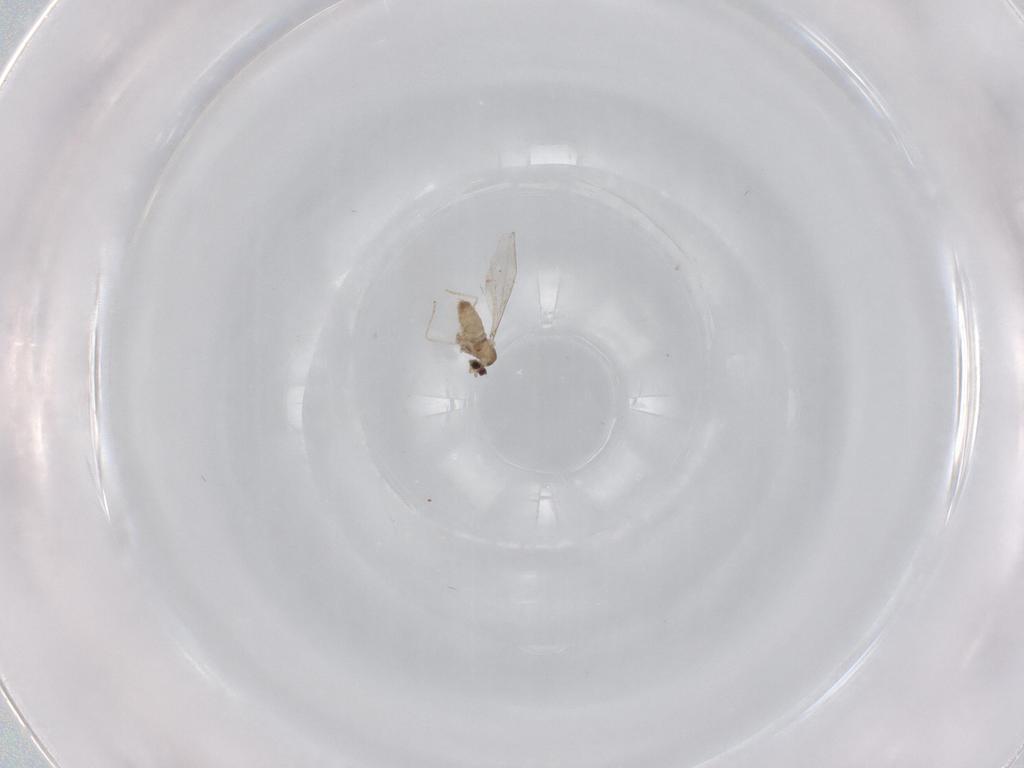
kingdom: Animalia
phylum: Arthropoda
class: Insecta
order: Diptera
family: Cecidomyiidae
